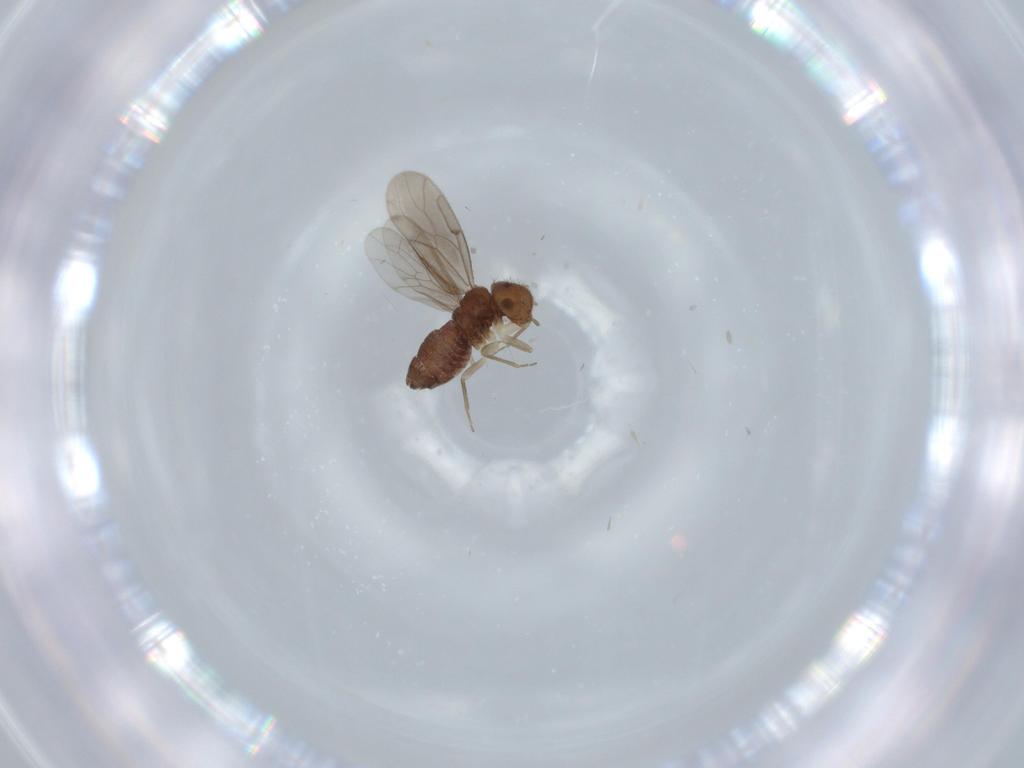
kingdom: Animalia
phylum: Arthropoda
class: Insecta
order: Psocodea
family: Ectopsocidae
